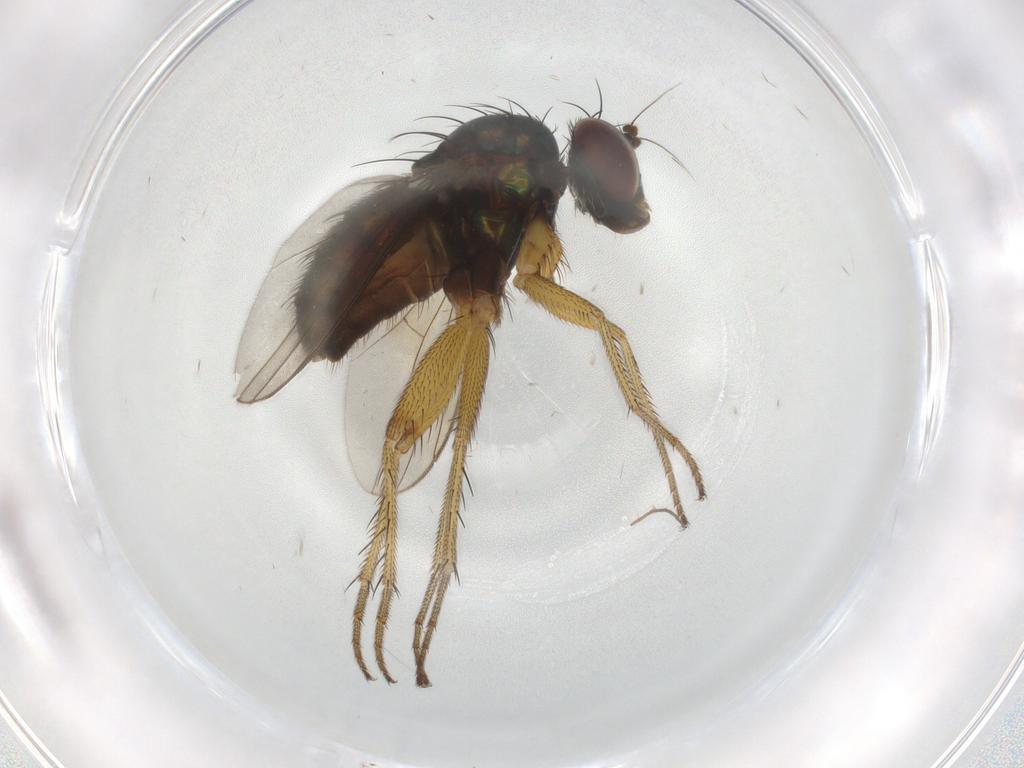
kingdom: Animalia
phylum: Arthropoda
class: Insecta
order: Diptera
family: Dolichopodidae
